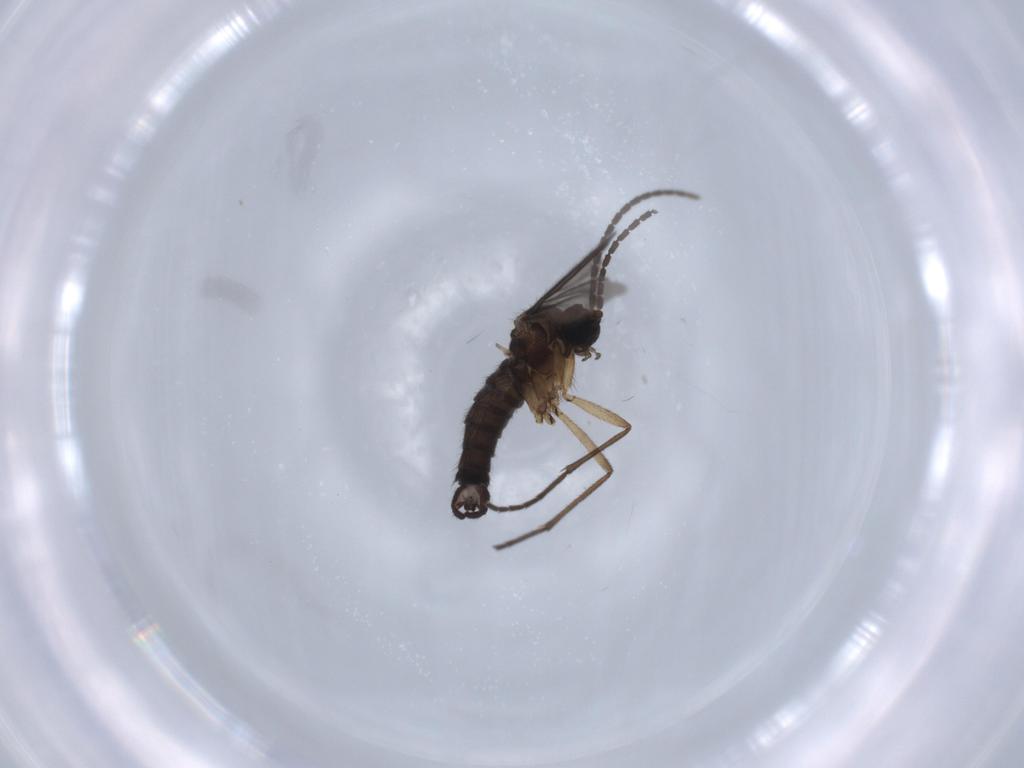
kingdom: Animalia
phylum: Arthropoda
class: Insecta
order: Diptera
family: Sciaridae
